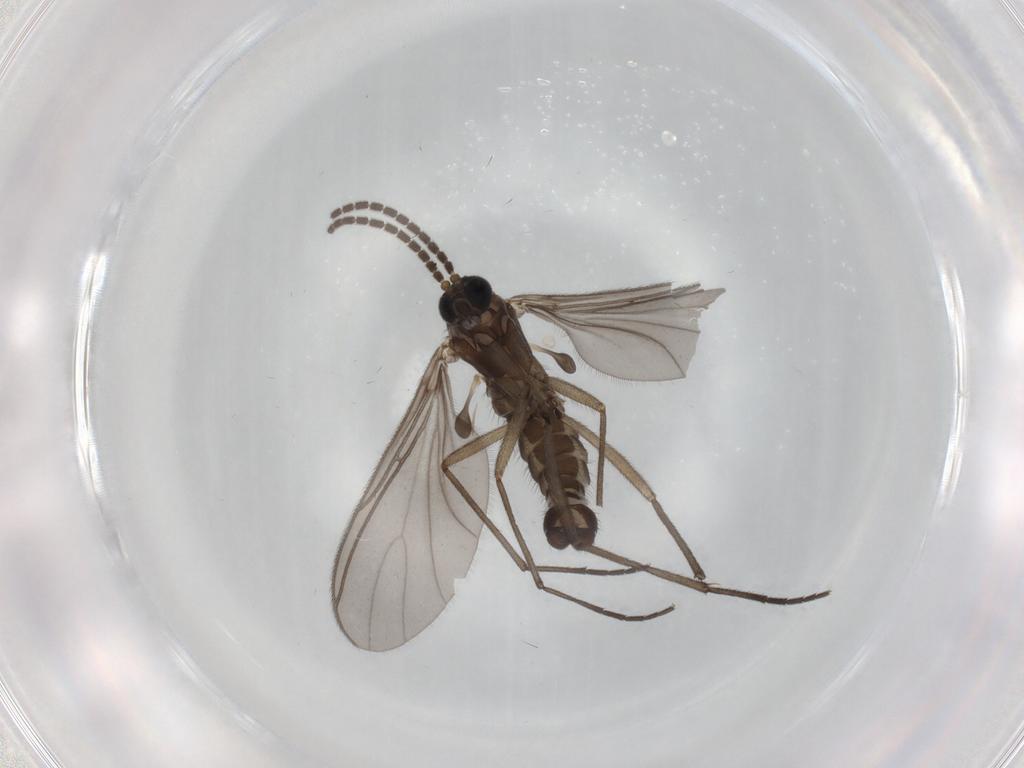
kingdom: Animalia
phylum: Arthropoda
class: Insecta
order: Diptera
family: Sciaridae
